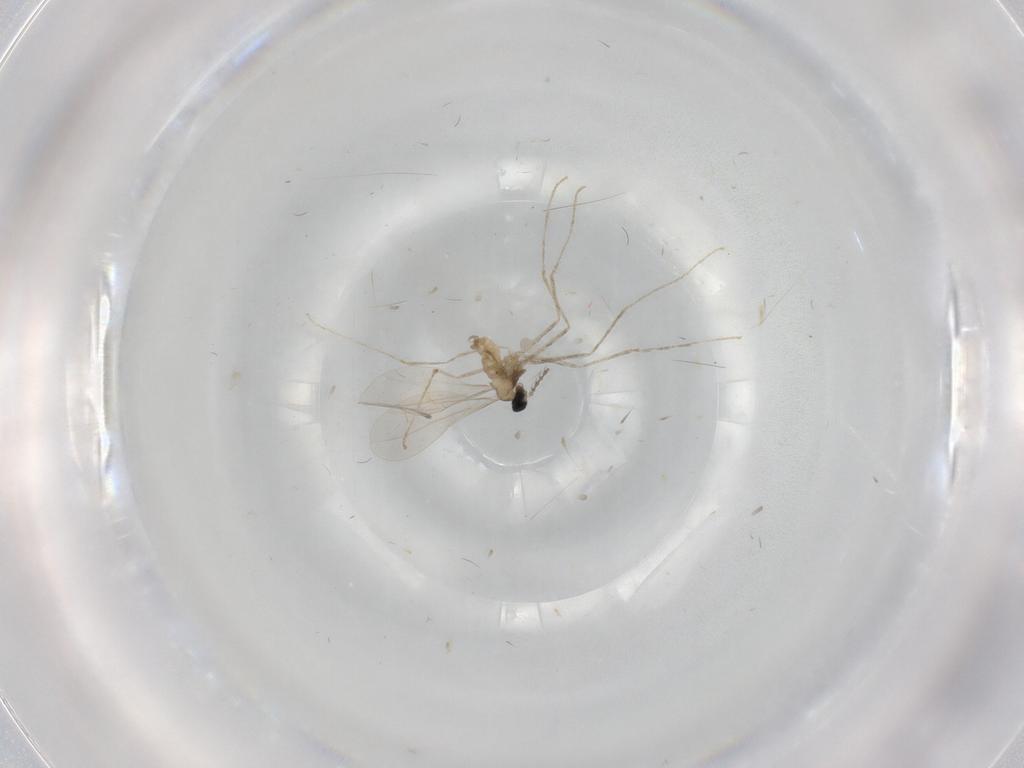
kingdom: Animalia
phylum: Arthropoda
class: Insecta
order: Diptera
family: Cecidomyiidae
